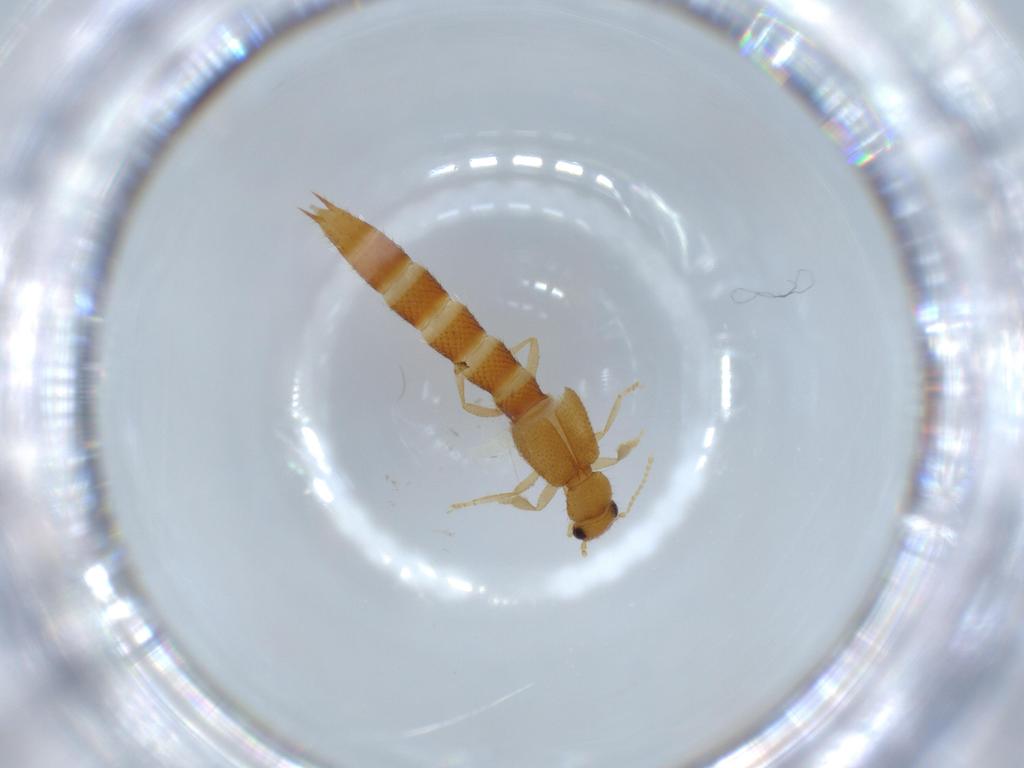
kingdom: Animalia
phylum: Arthropoda
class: Insecta
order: Coleoptera
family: Staphylinidae
